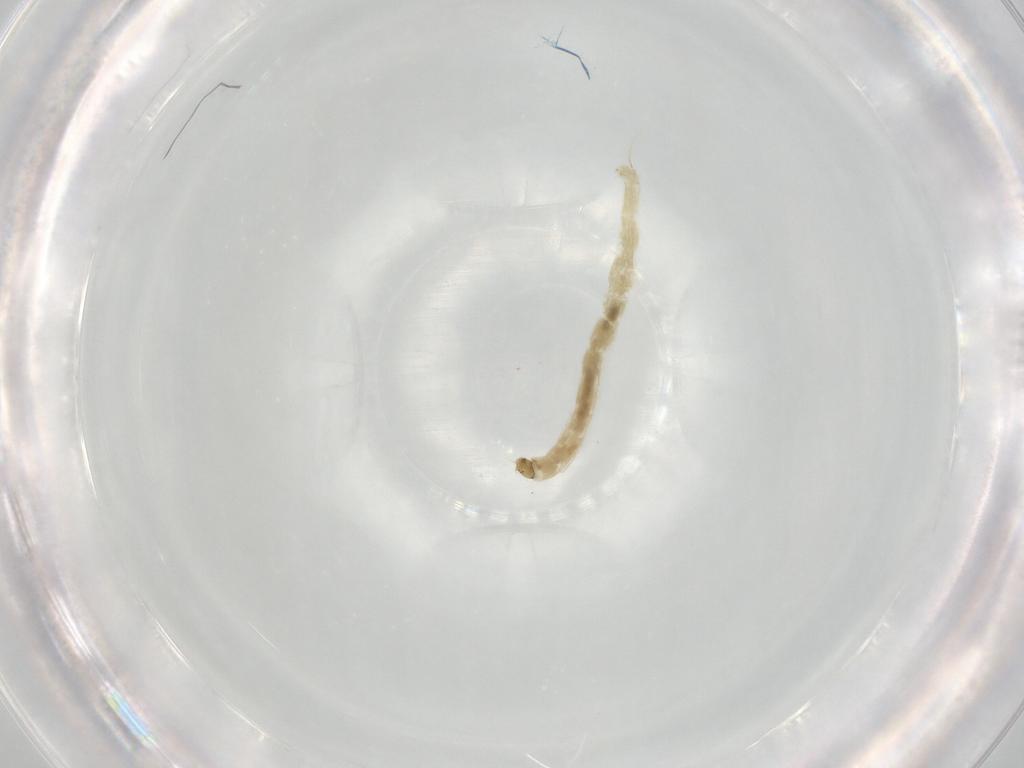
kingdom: Animalia
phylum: Arthropoda
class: Insecta
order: Diptera
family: Chironomidae
